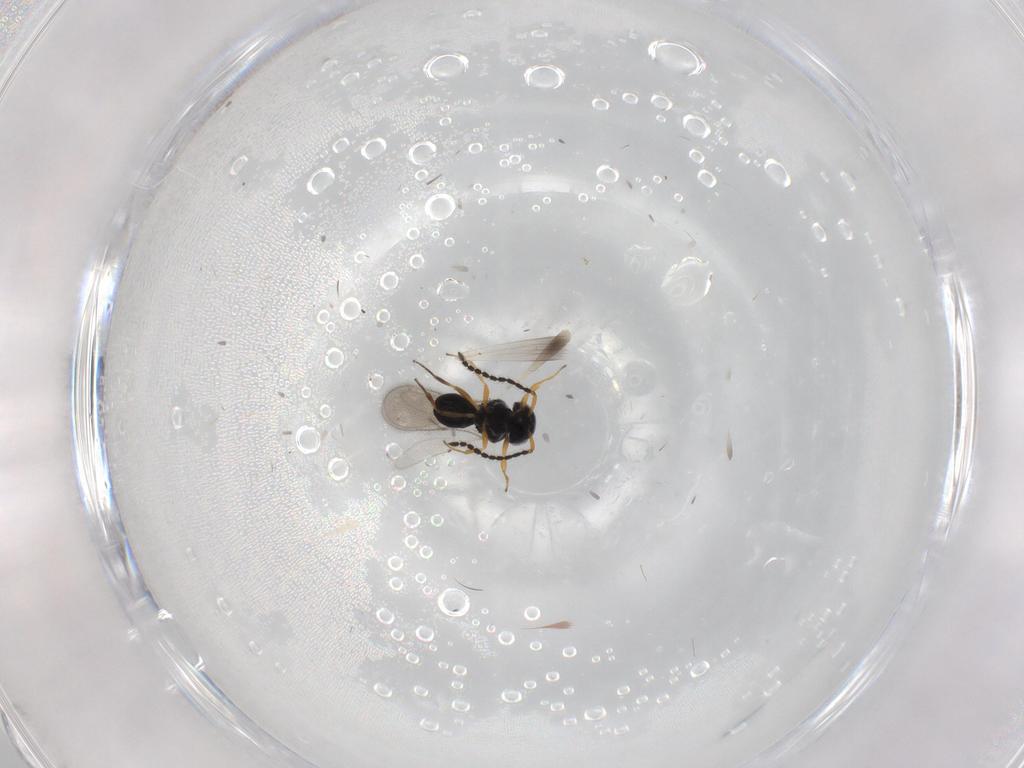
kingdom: Animalia
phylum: Arthropoda
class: Insecta
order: Hymenoptera
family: Scelionidae
